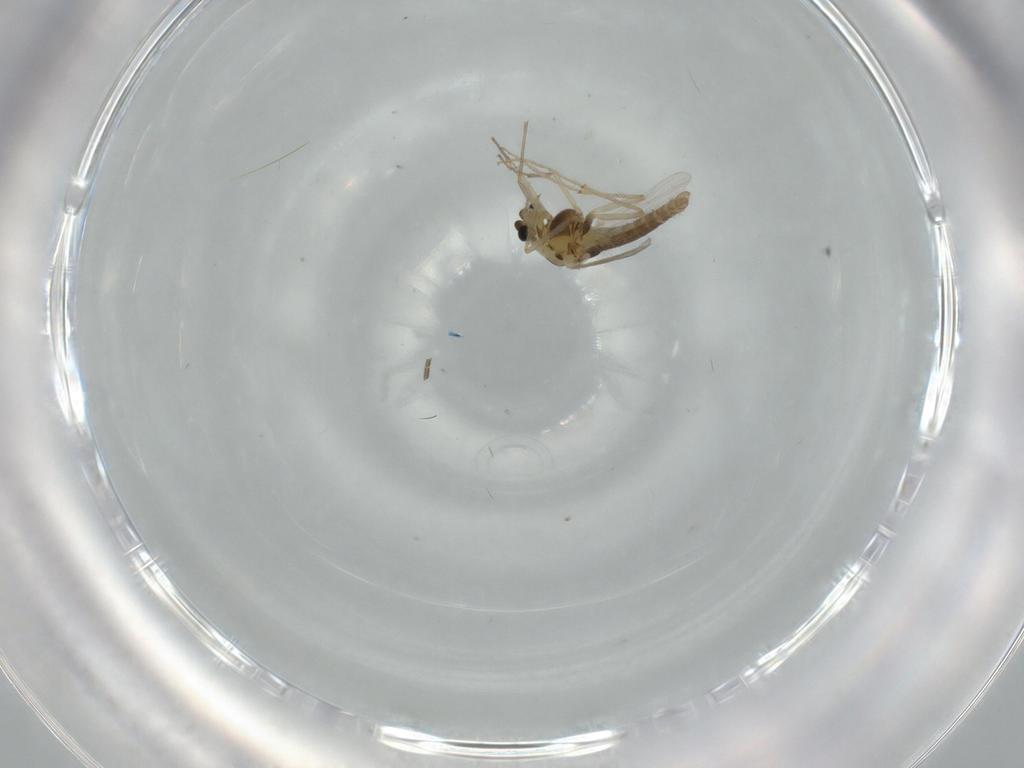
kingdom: Animalia
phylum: Arthropoda
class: Insecta
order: Diptera
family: Chironomidae
